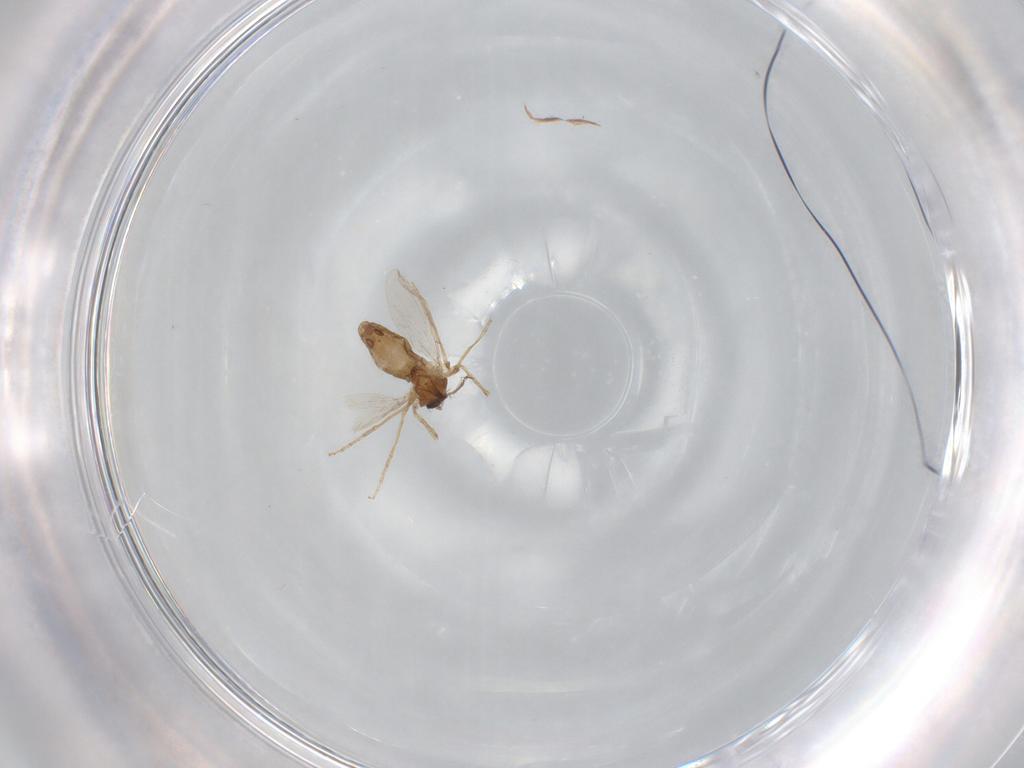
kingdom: Animalia
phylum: Arthropoda
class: Insecta
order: Diptera
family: Ceratopogonidae
